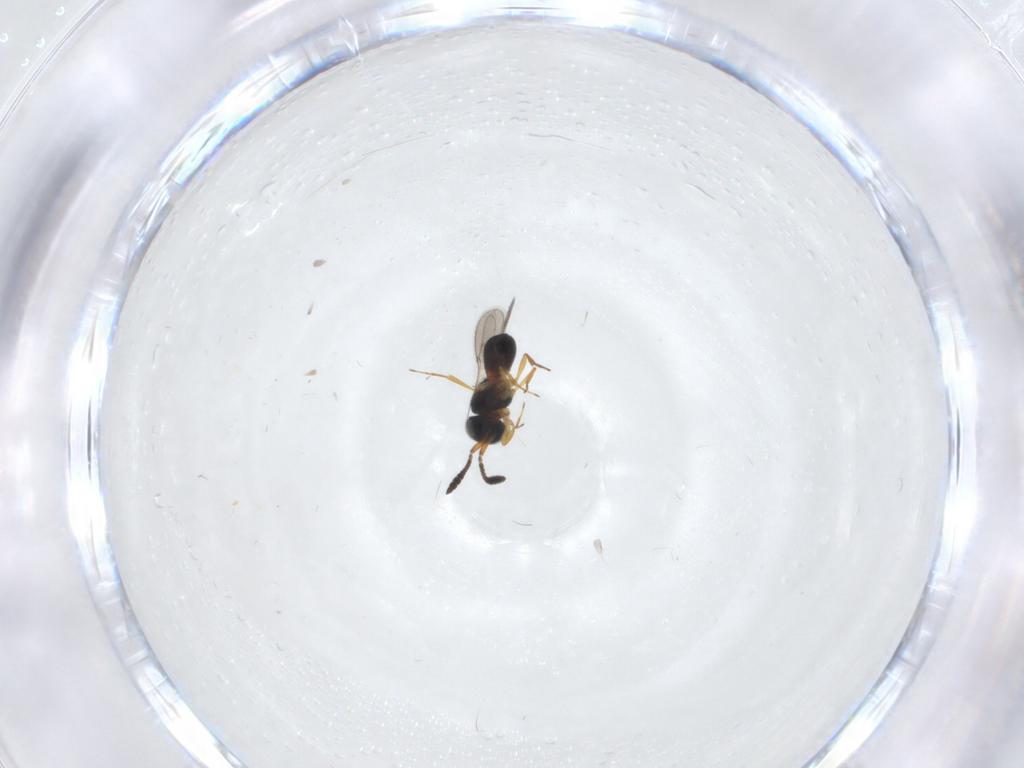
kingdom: Animalia
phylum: Arthropoda
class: Insecta
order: Hymenoptera
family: Scelionidae
